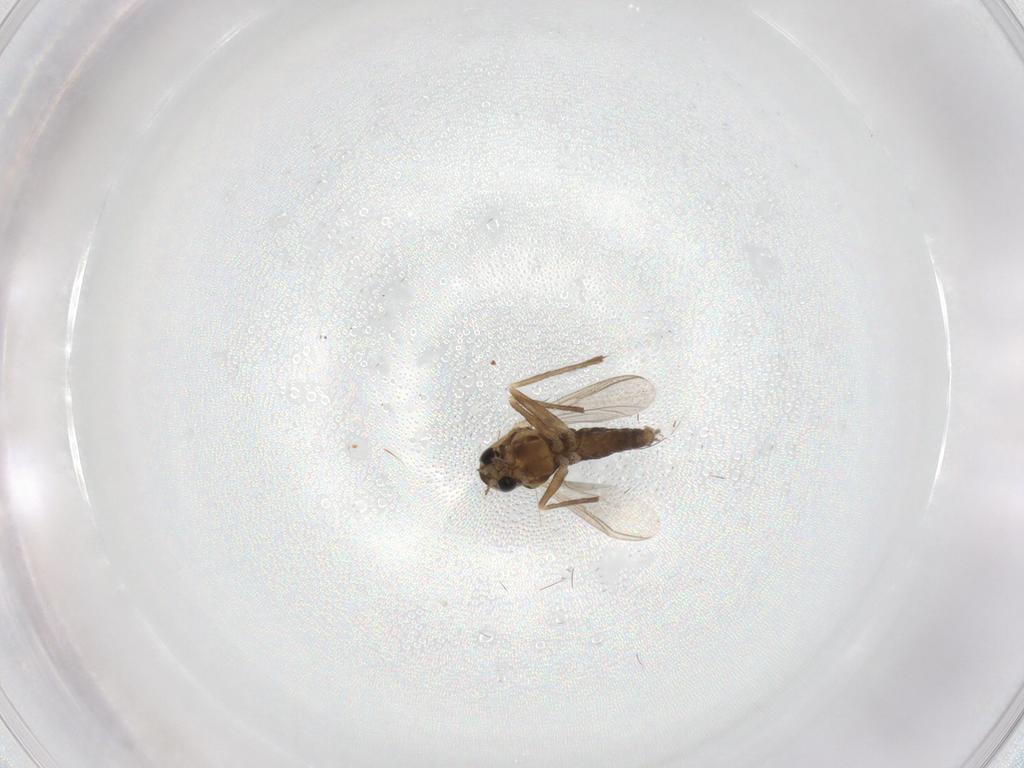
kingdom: Animalia
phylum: Arthropoda
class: Insecta
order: Diptera
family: Chironomidae
